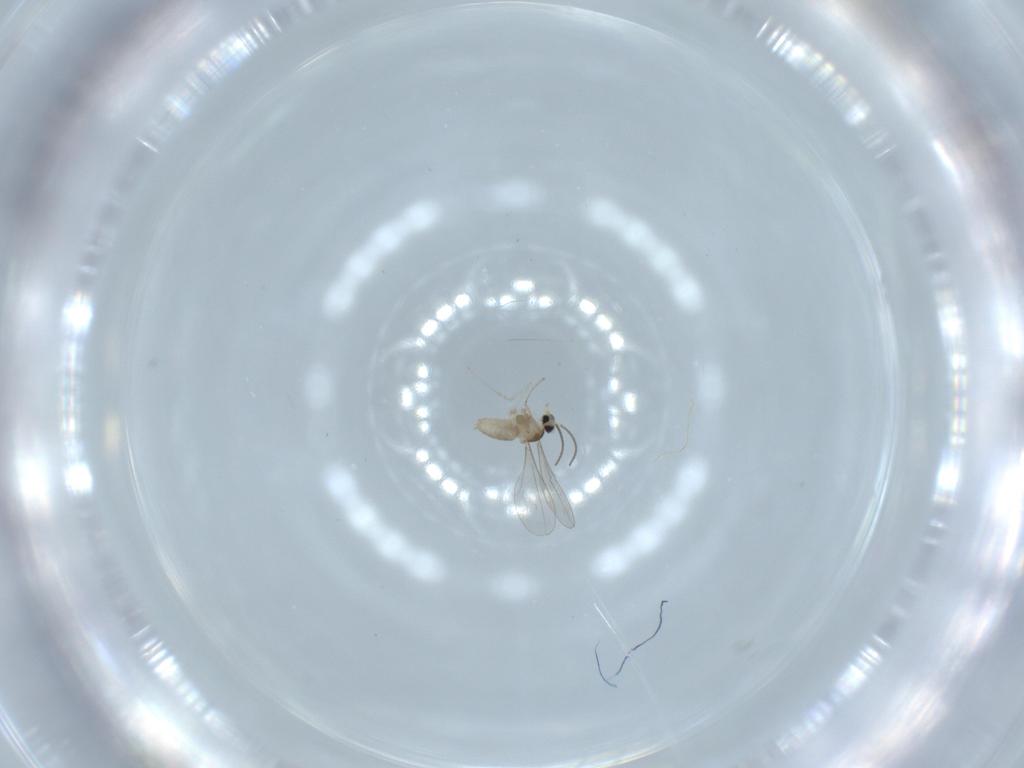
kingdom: Animalia
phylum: Arthropoda
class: Insecta
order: Diptera
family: Cecidomyiidae
